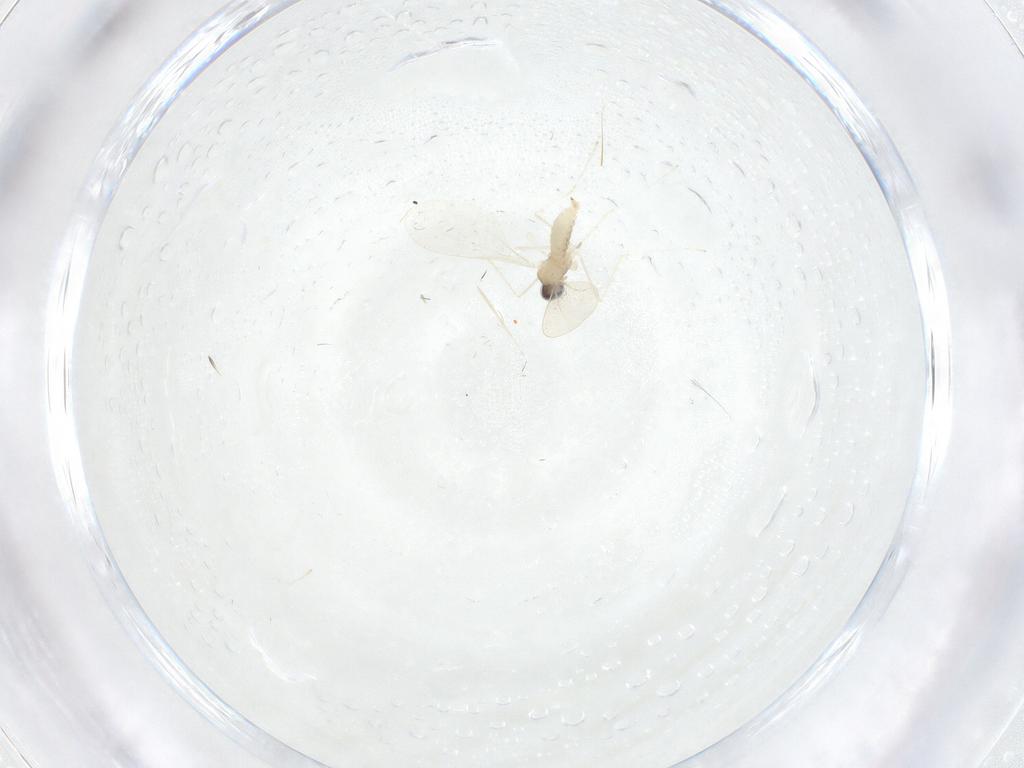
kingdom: Animalia
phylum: Arthropoda
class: Insecta
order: Diptera
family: Cecidomyiidae
